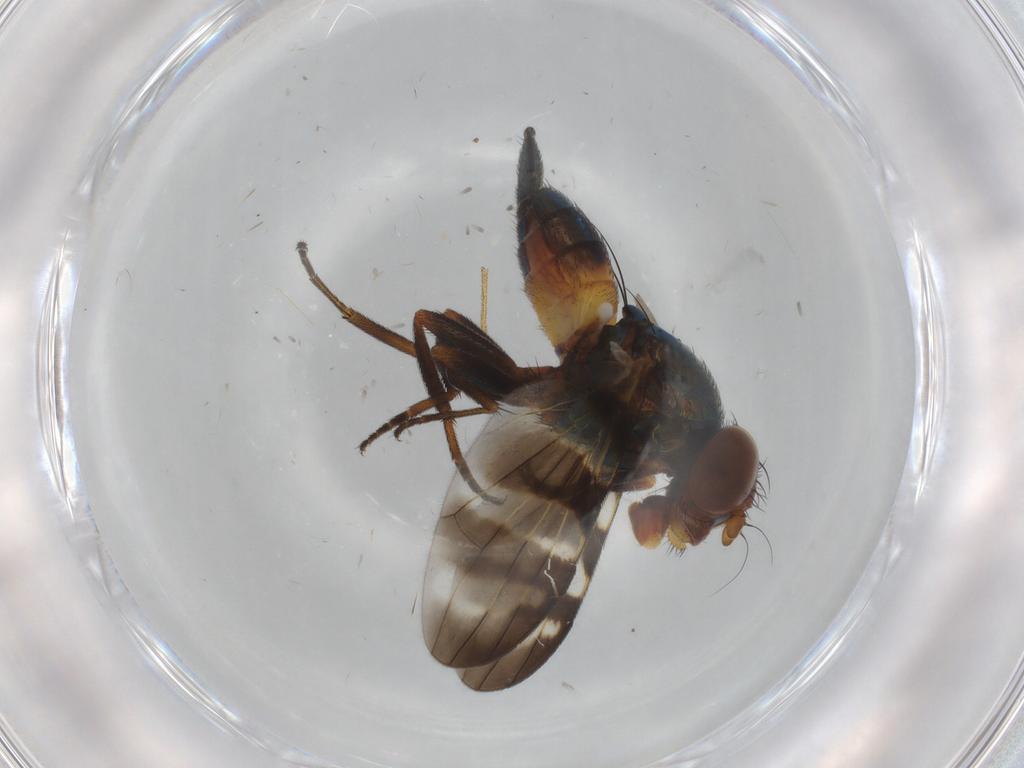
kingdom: Animalia
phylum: Arthropoda
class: Insecta
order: Diptera
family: Ulidiidae
